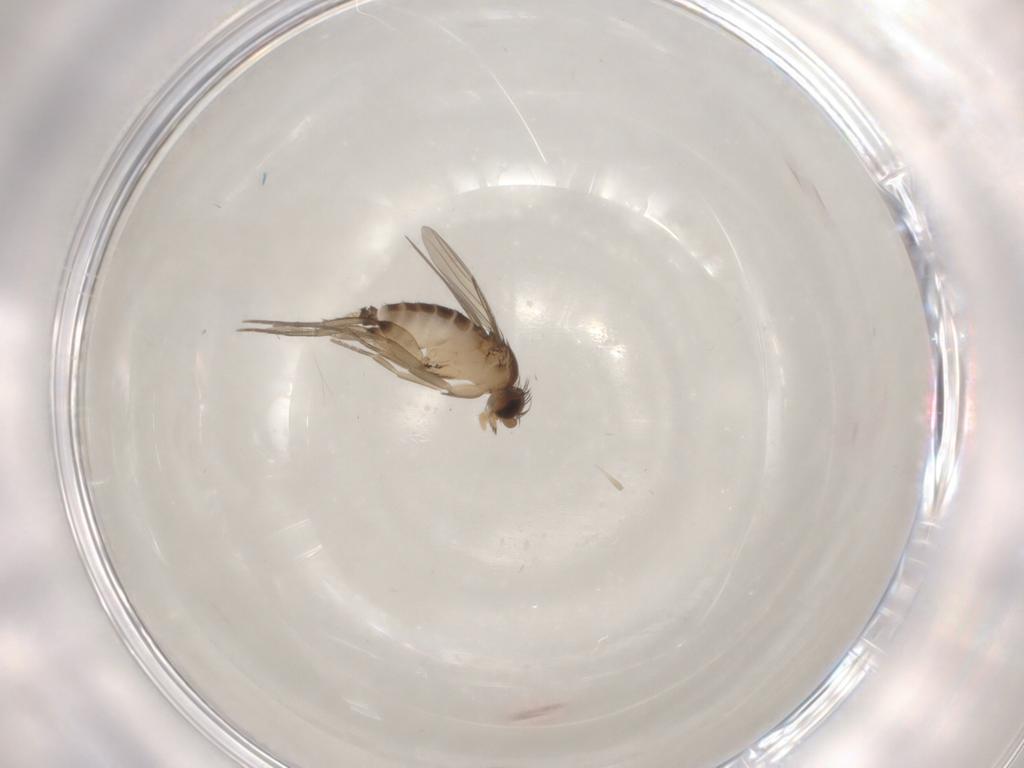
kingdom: Animalia
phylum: Arthropoda
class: Insecta
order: Diptera
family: Phoridae
